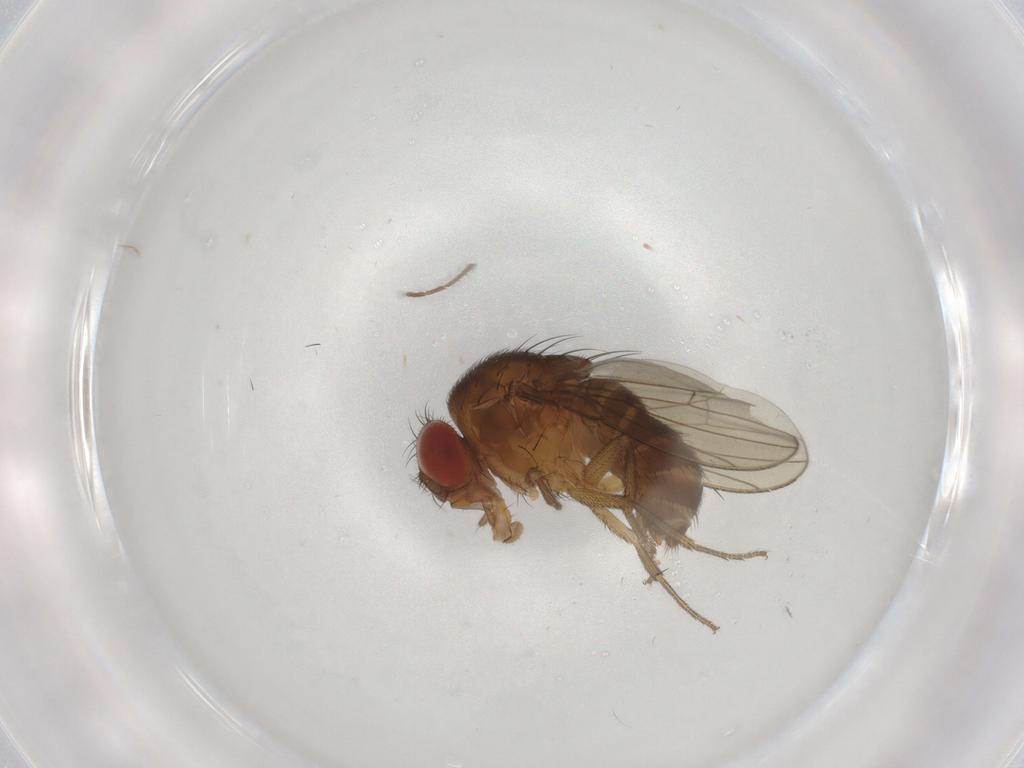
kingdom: Animalia
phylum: Arthropoda
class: Insecta
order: Diptera
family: Drosophilidae
